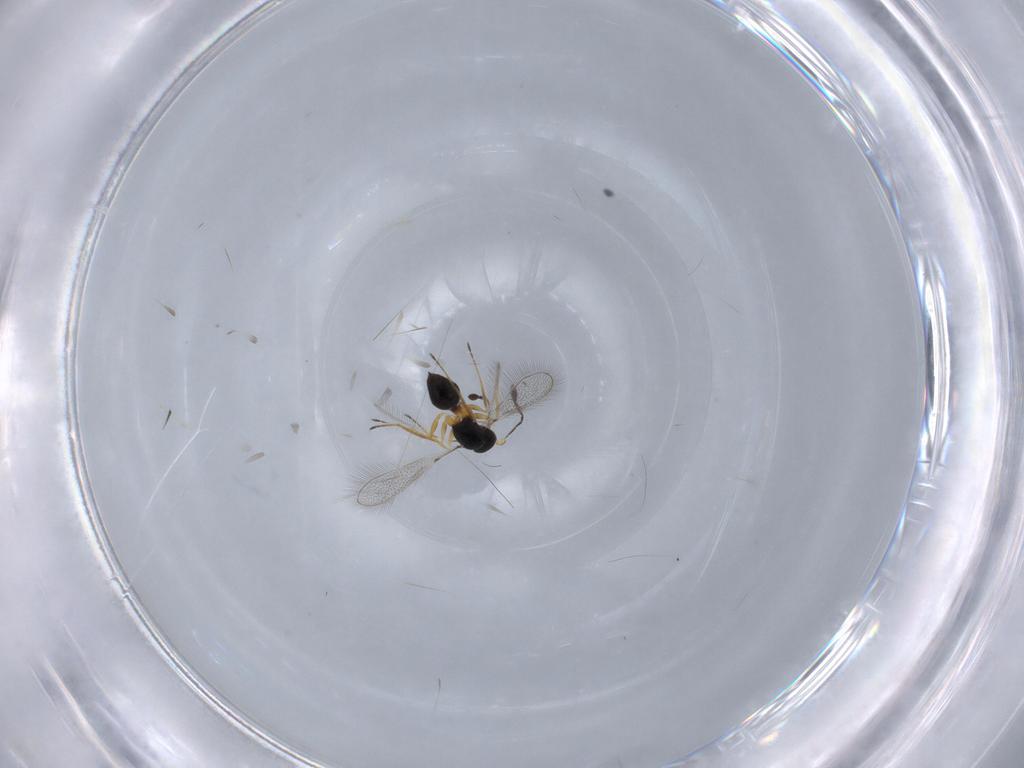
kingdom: Animalia
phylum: Arthropoda
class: Insecta
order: Hymenoptera
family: Mymaridae
